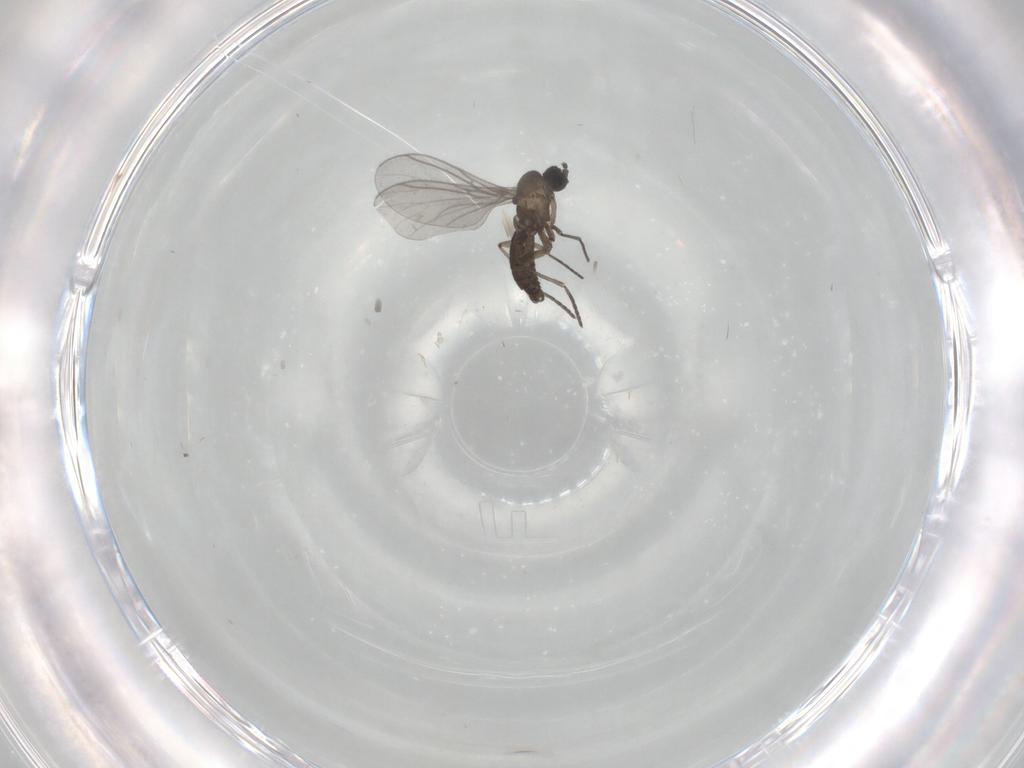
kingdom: Animalia
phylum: Arthropoda
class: Insecta
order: Diptera
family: Sciaridae
